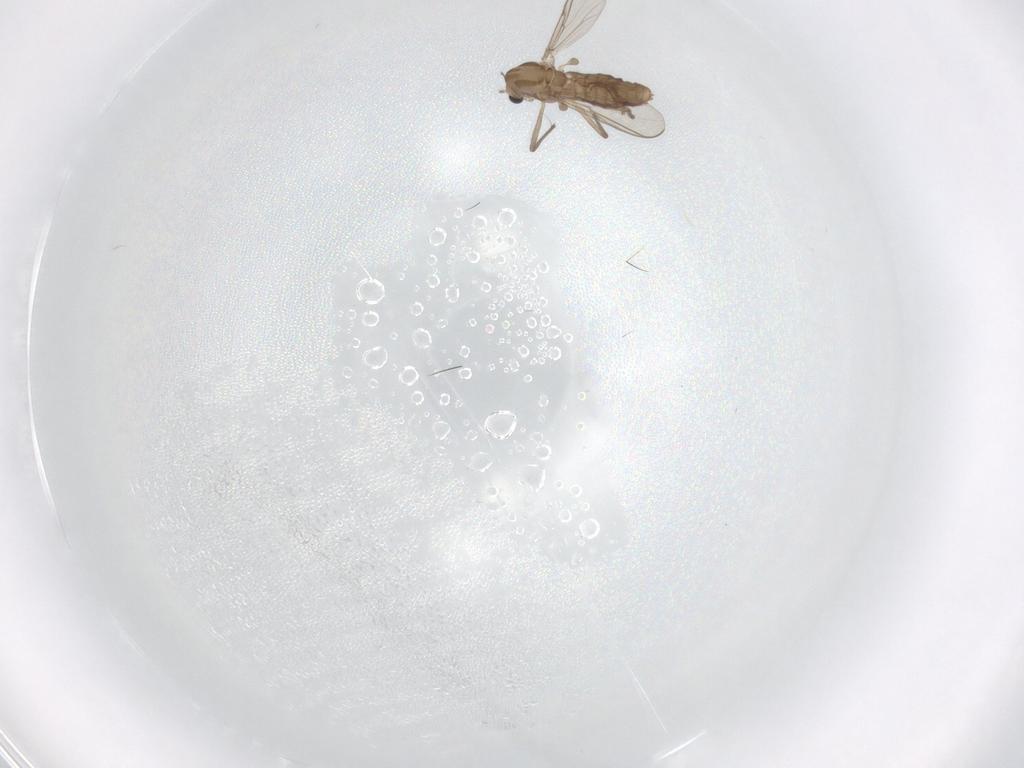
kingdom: Animalia
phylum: Arthropoda
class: Insecta
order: Diptera
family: Chironomidae
